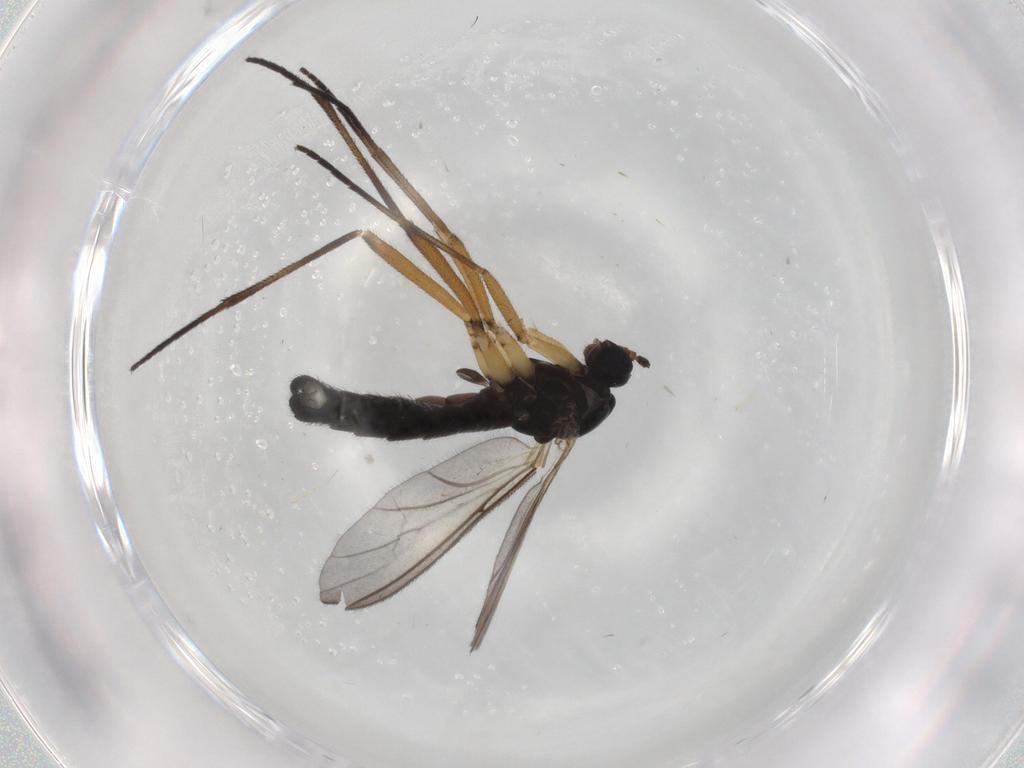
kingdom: Animalia
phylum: Arthropoda
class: Insecta
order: Diptera
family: Sciaridae
